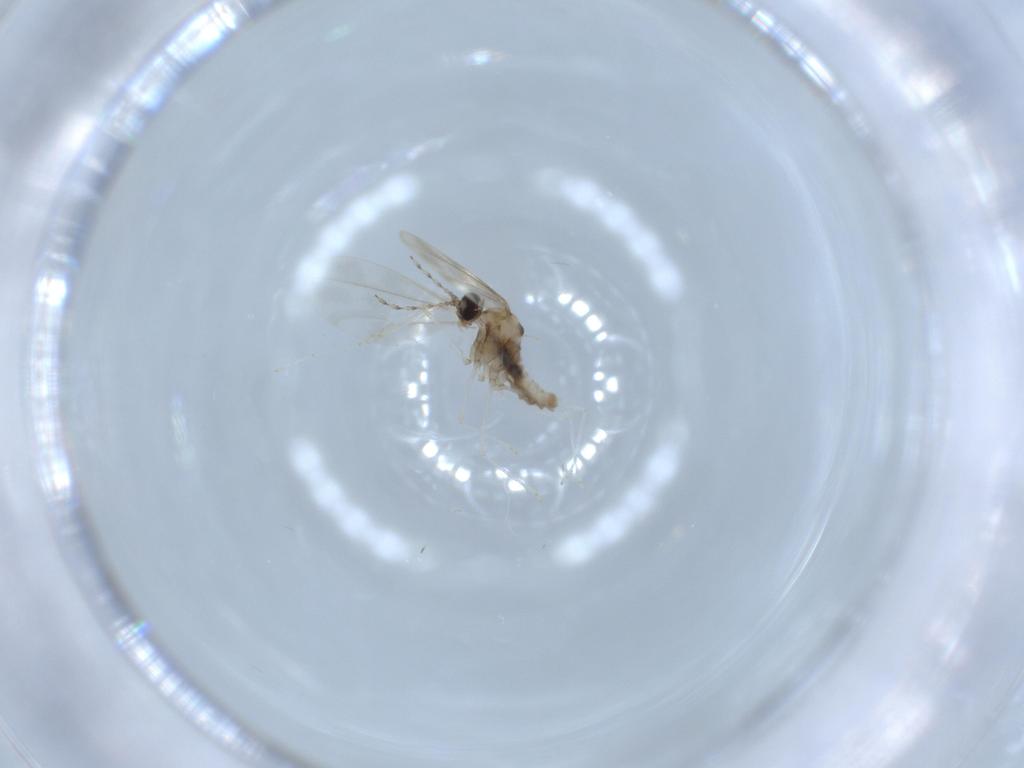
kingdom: Animalia
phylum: Arthropoda
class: Insecta
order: Diptera
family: Cecidomyiidae
